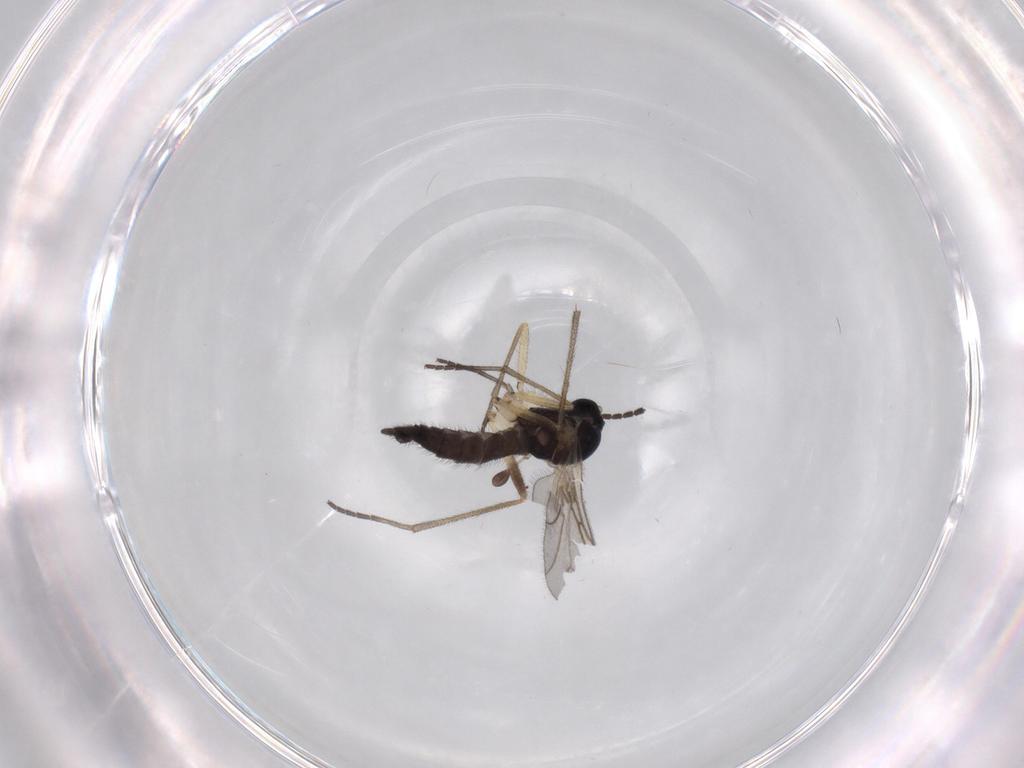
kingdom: Animalia
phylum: Arthropoda
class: Insecta
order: Diptera
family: Sciaridae
